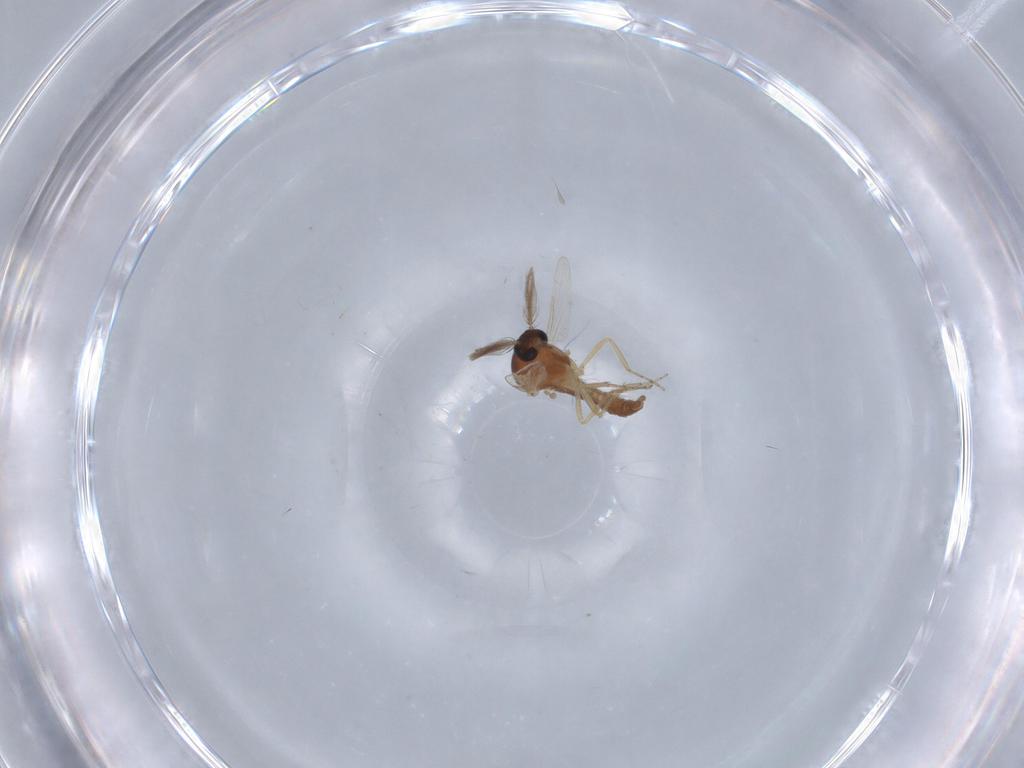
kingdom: Animalia
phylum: Arthropoda
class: Insecta
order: Diptera
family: Ceratopogonidae
